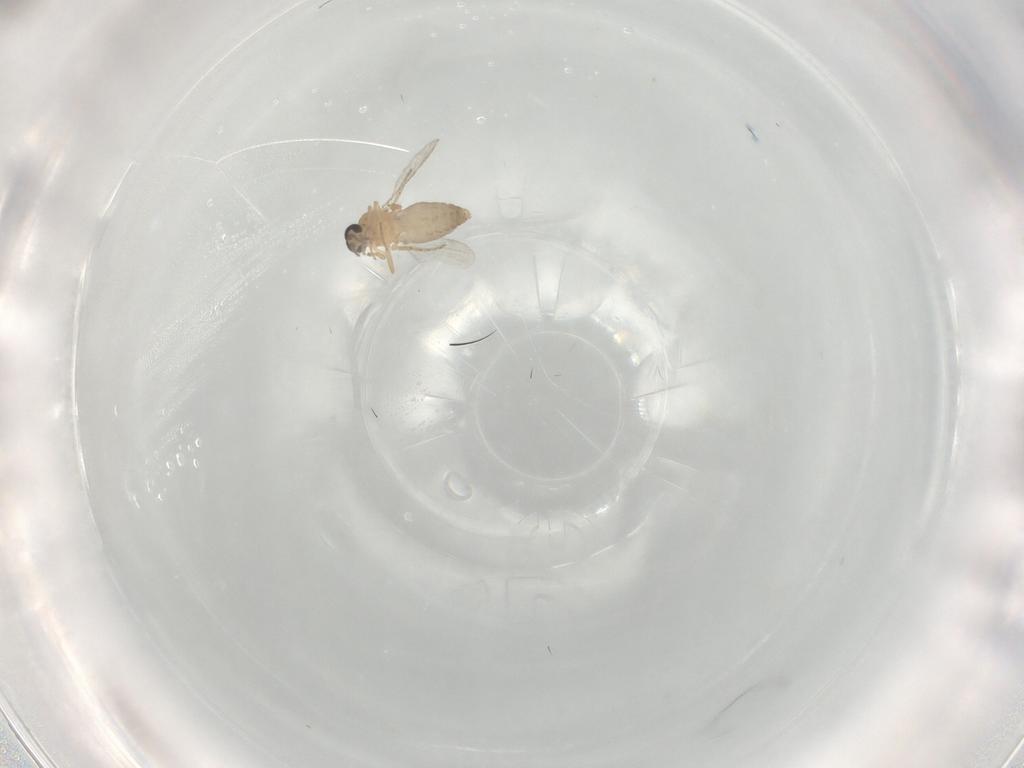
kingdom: Animalia
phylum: Arthropoda
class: Insecta
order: Diptera
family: Ceratopogonidae
